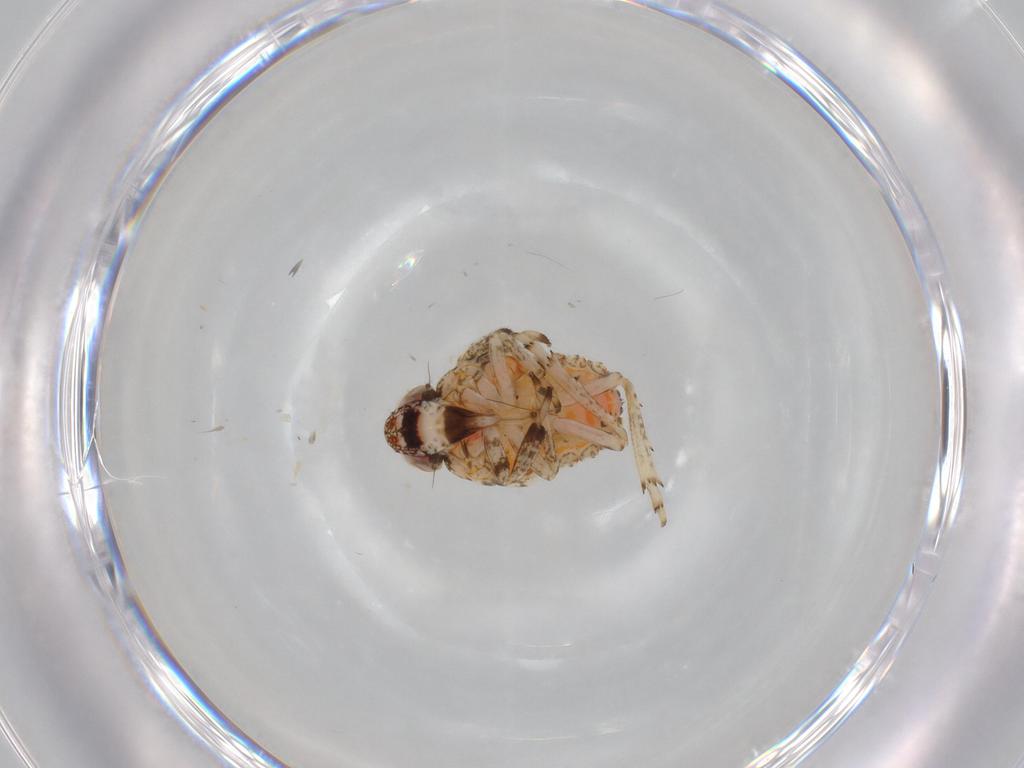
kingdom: Animalia
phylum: Arthropoda
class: Insecta
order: Hemiptera
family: Issidae
